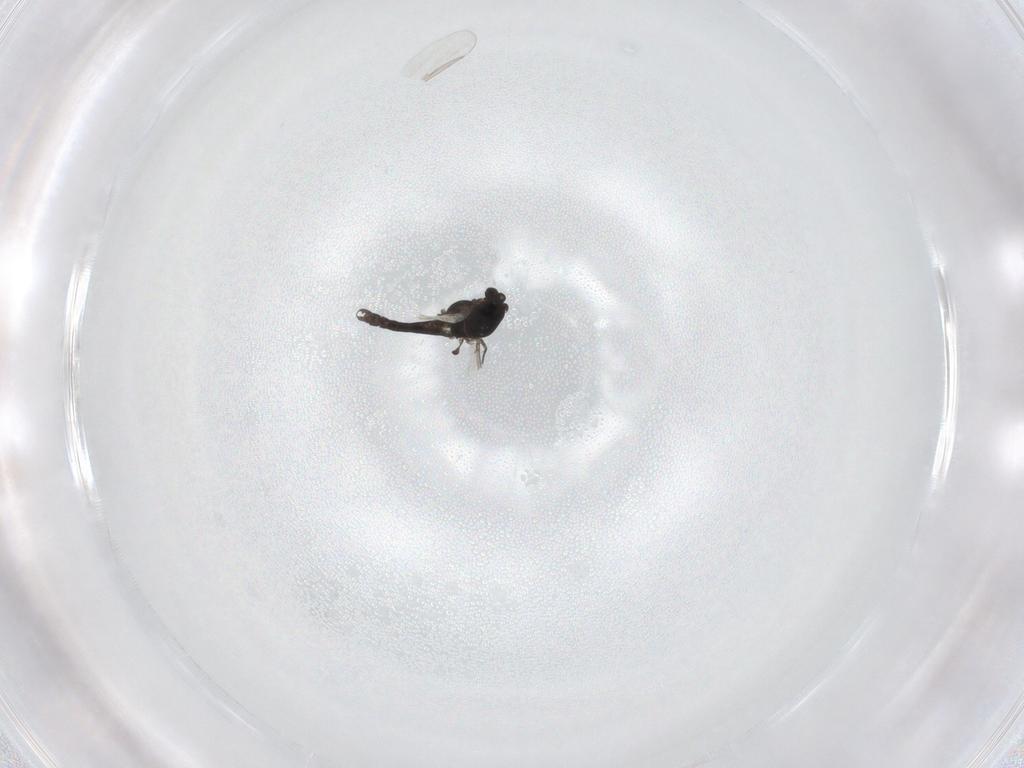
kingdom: Animalia
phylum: Arthropoda
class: Insecta
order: Diptera
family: Chironomidae
